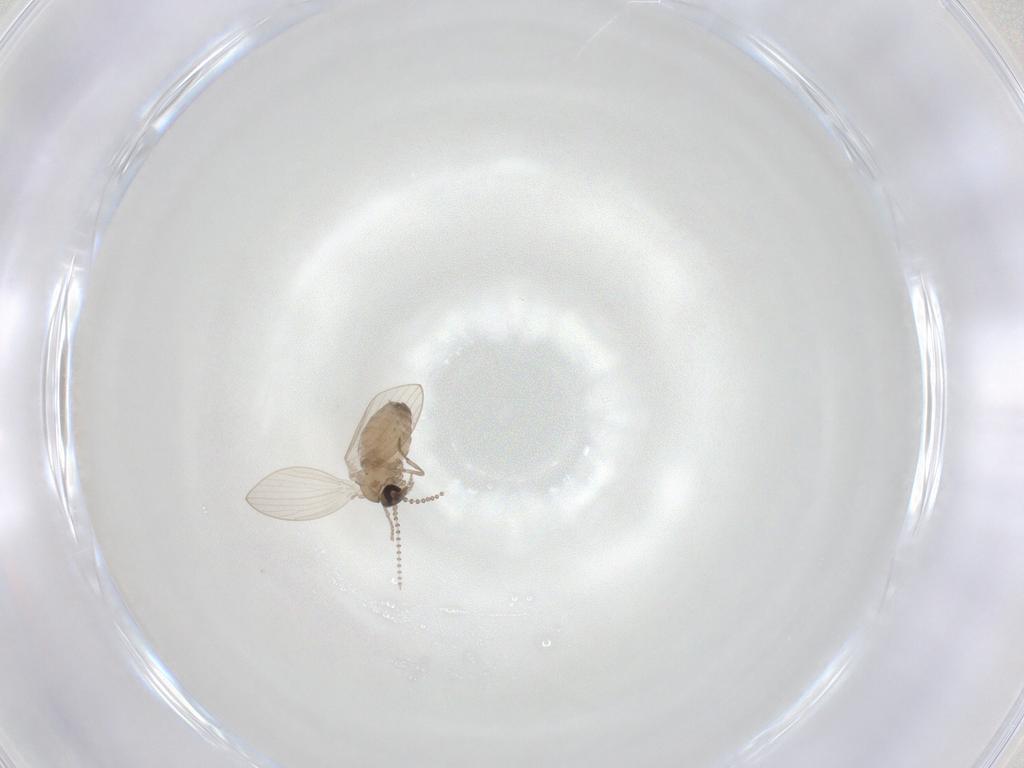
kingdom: Animalia
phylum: Arthropoda
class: Insecta
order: Diptera
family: Psychodidae
